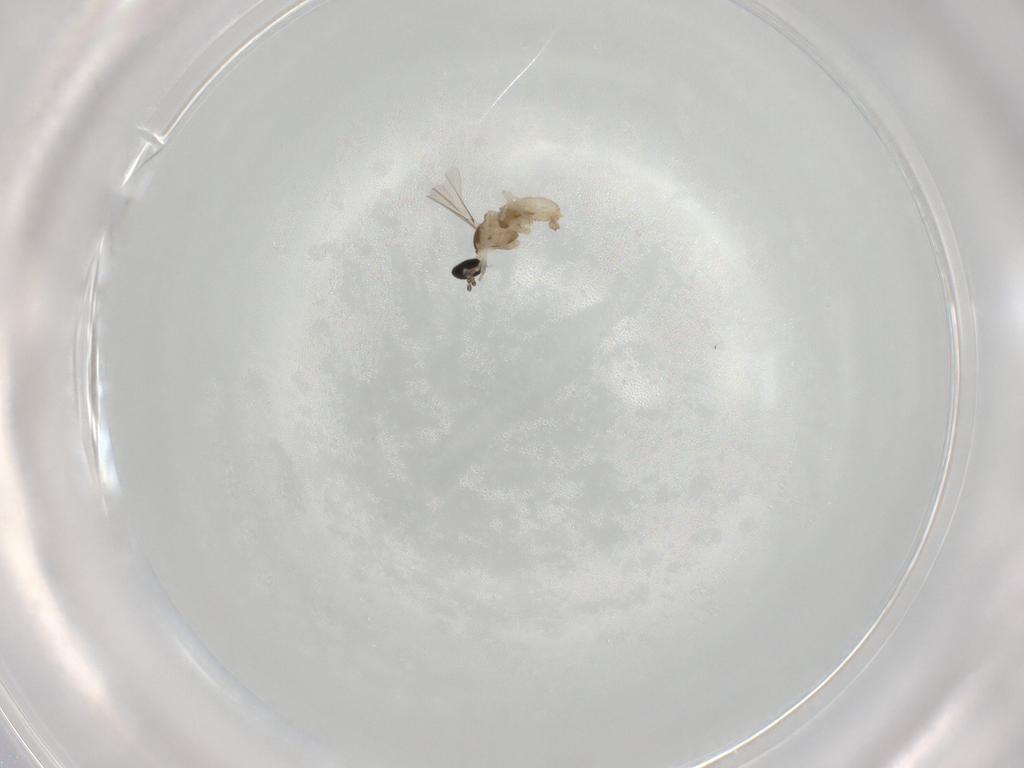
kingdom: Animalia
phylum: Arthropoda
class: Insecta
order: Diptera
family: Cecidomyiidae
